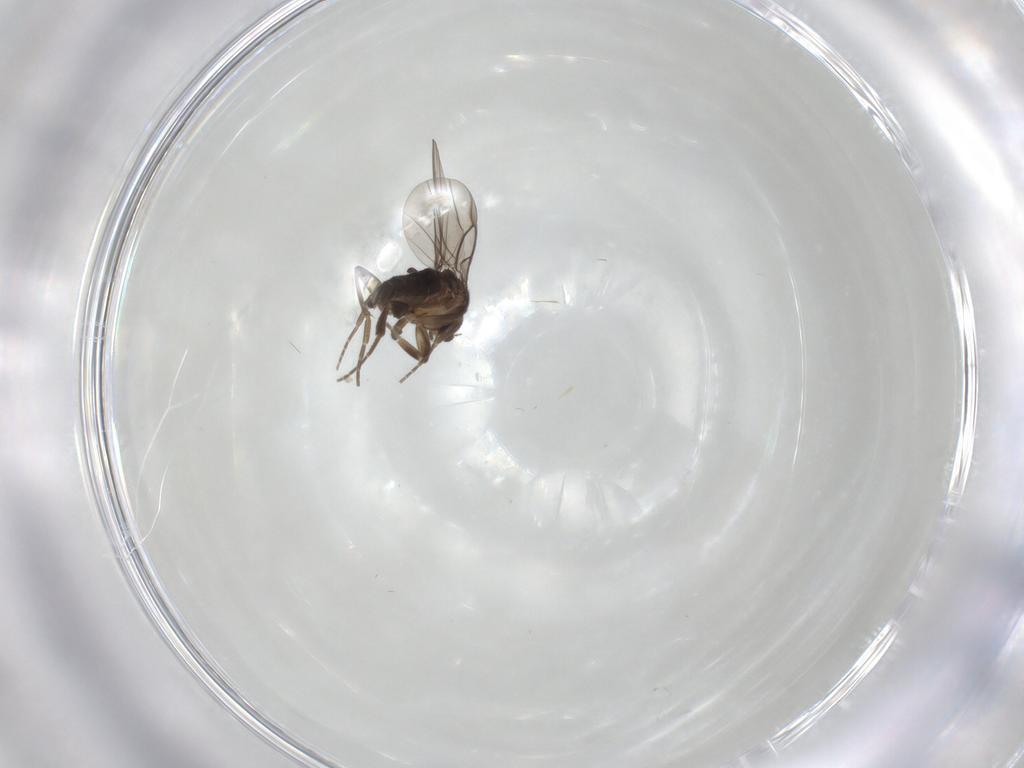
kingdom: Animalia
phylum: Arthropoda
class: Insecta
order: Diptera
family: Phoridae
